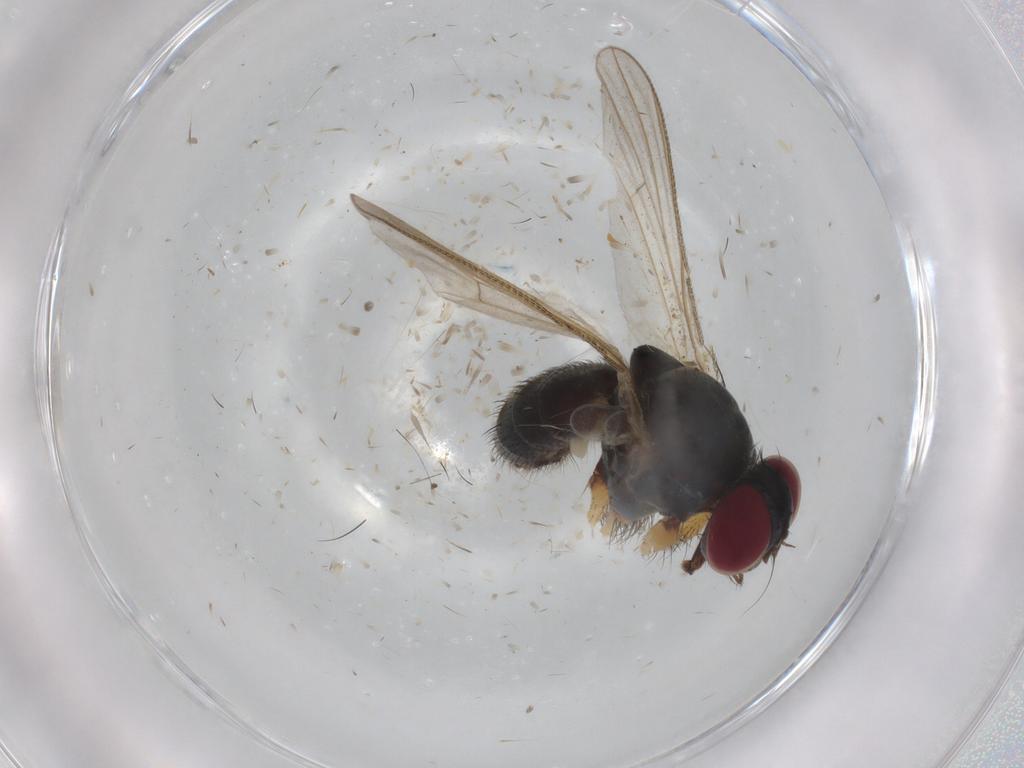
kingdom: Animalia
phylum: Arthropoda
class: Insecta
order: Diptera
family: Muscidae
